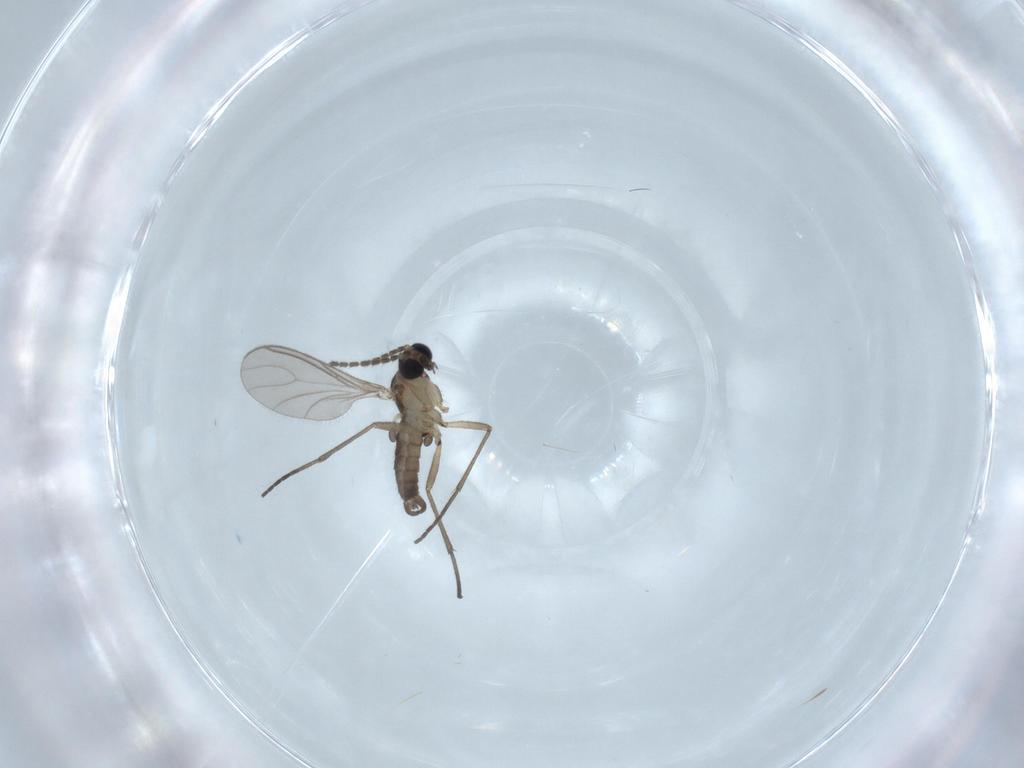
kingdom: Animalia
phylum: Arthropoda
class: Insecta
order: Diptera
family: Sciaridae
